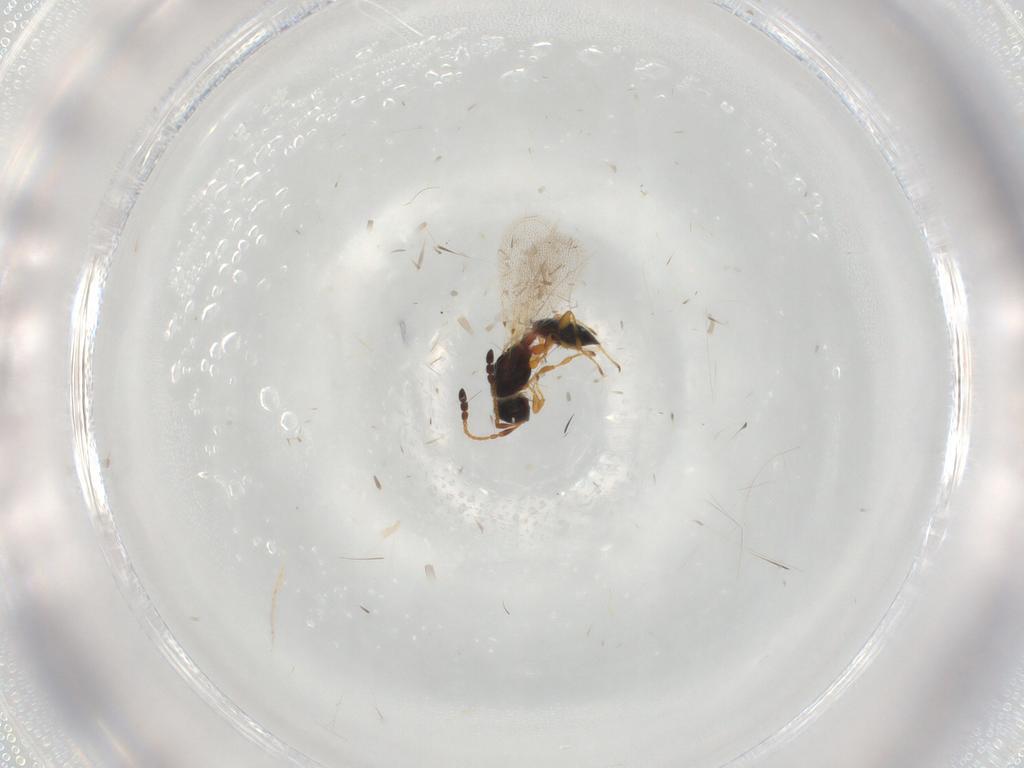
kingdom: Animalia
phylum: Arthropoda
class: Insecta
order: Hymenoptera
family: Diapriidae
